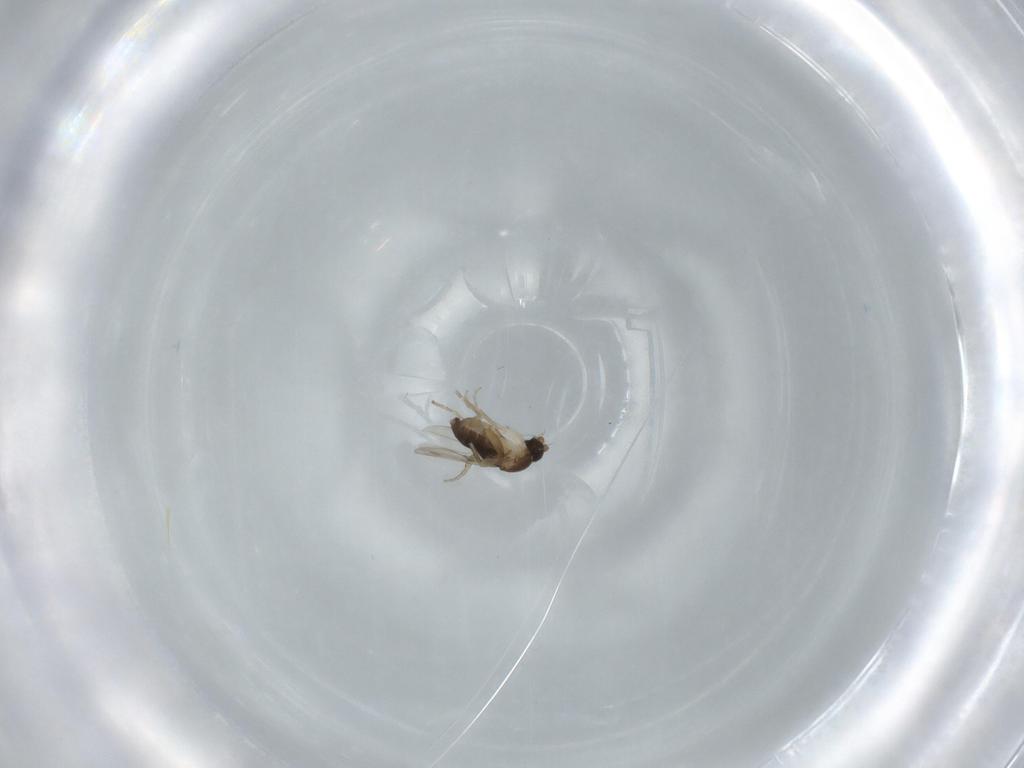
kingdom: Animalia
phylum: Arthropoda
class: Insecta
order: Diptera
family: Phoridae
